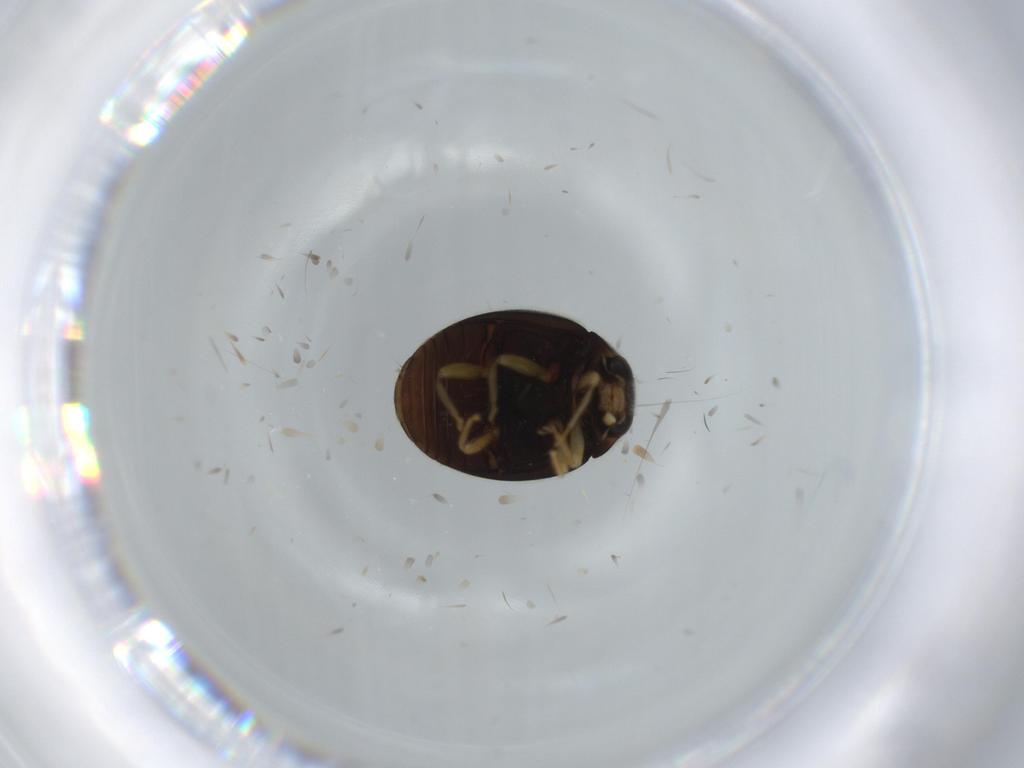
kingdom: Animalia
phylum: Arthropoda
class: Insecta
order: Coleoptera
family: Coccinellidae
